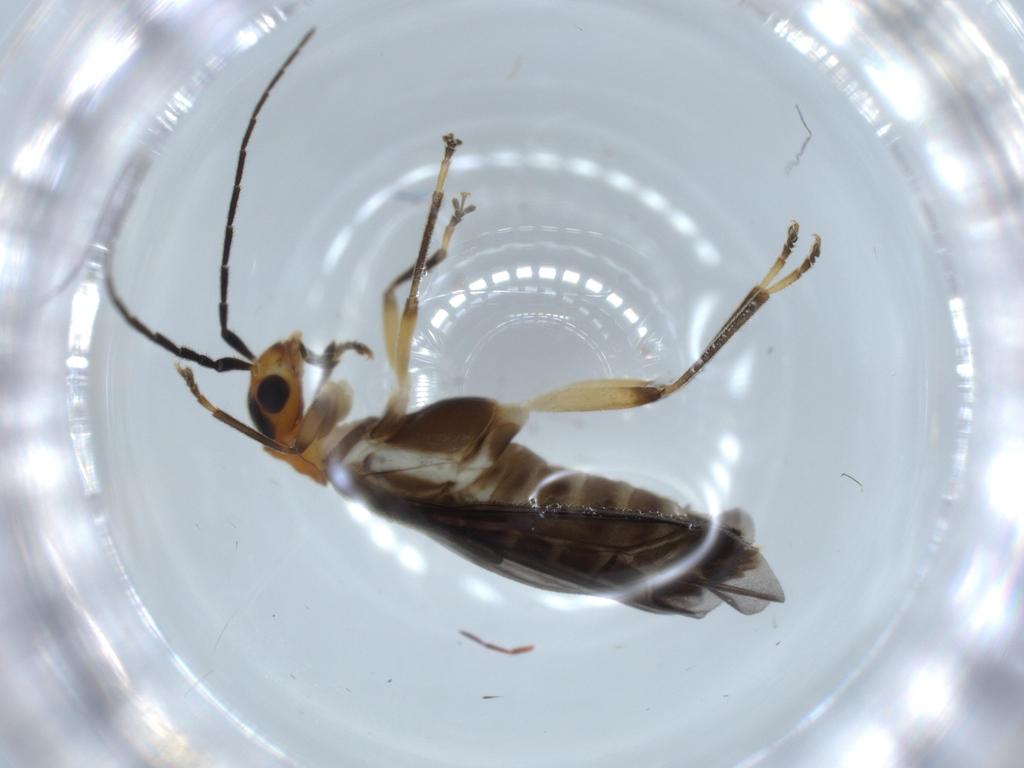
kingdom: Animalia
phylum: Arthropoda
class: Insecta
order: Coleoptera
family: Cantharidae
